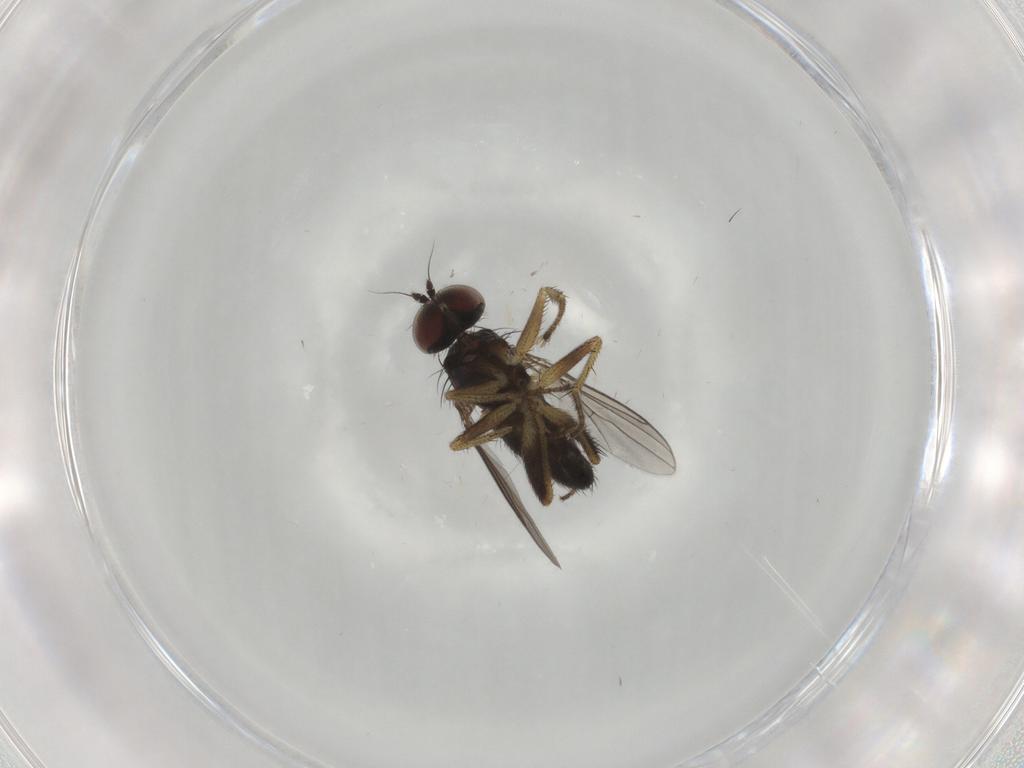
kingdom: Animalia
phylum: Arthropoda
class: Insecta
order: Diptera
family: Dolichopodidae
